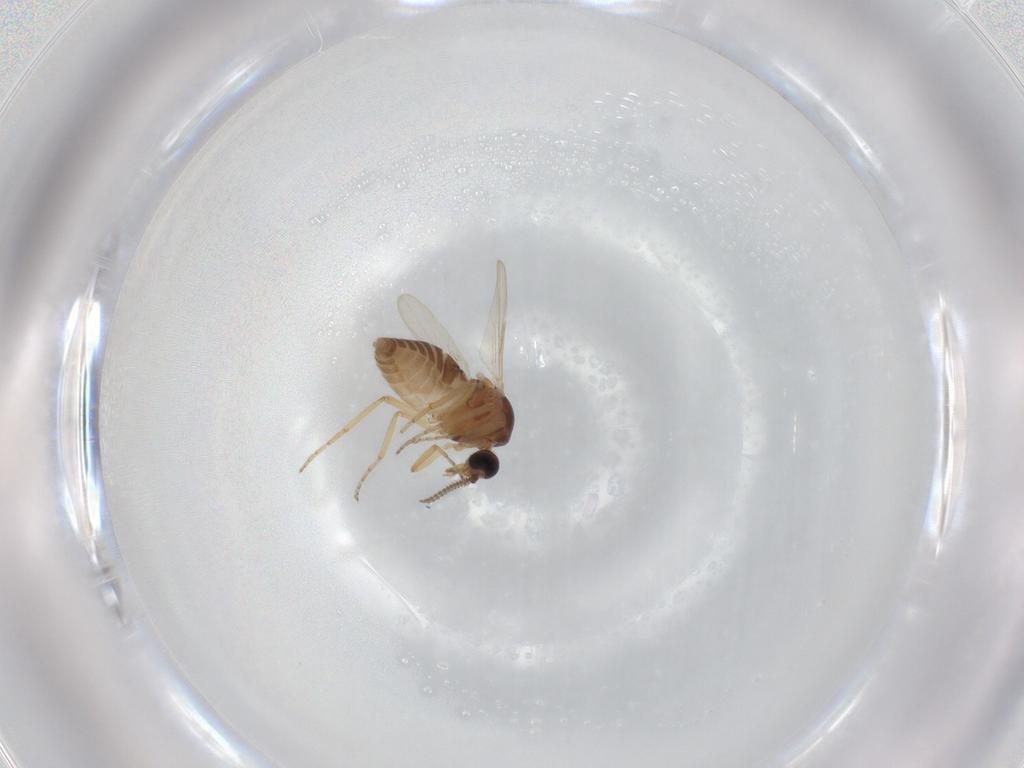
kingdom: Animalia
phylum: Arthropoda
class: Insecta
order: Diptera
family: Ceratopogonidae
